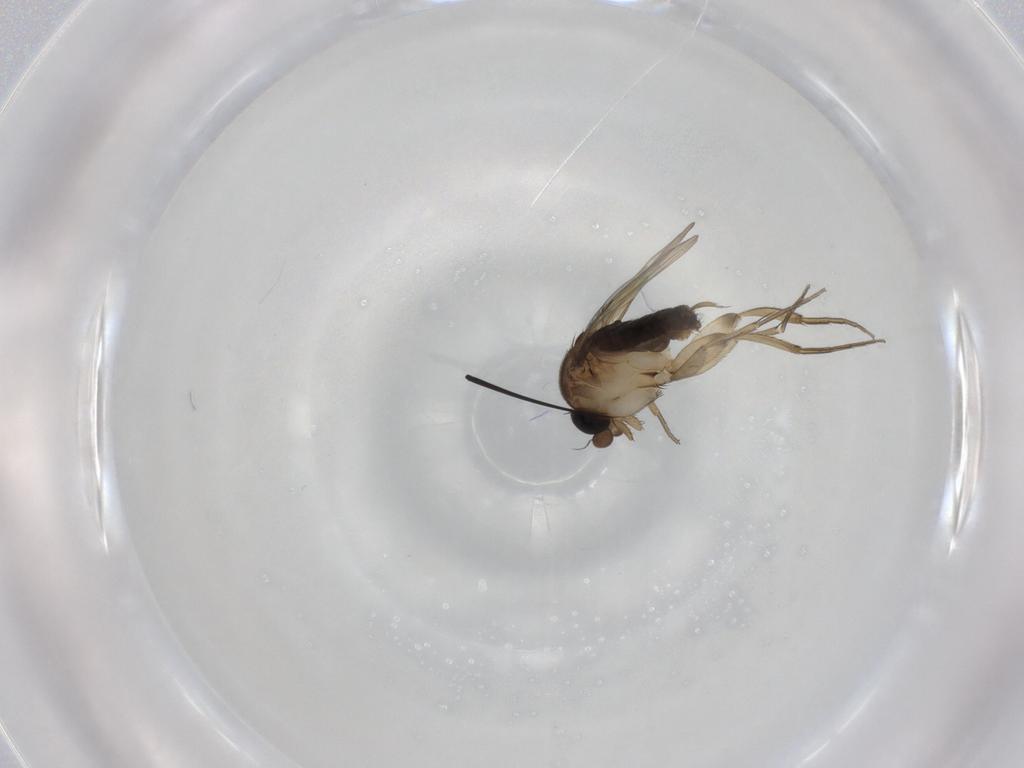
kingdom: Animalia
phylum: Arthropoda
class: Insecta
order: Diptera
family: Phoridae
